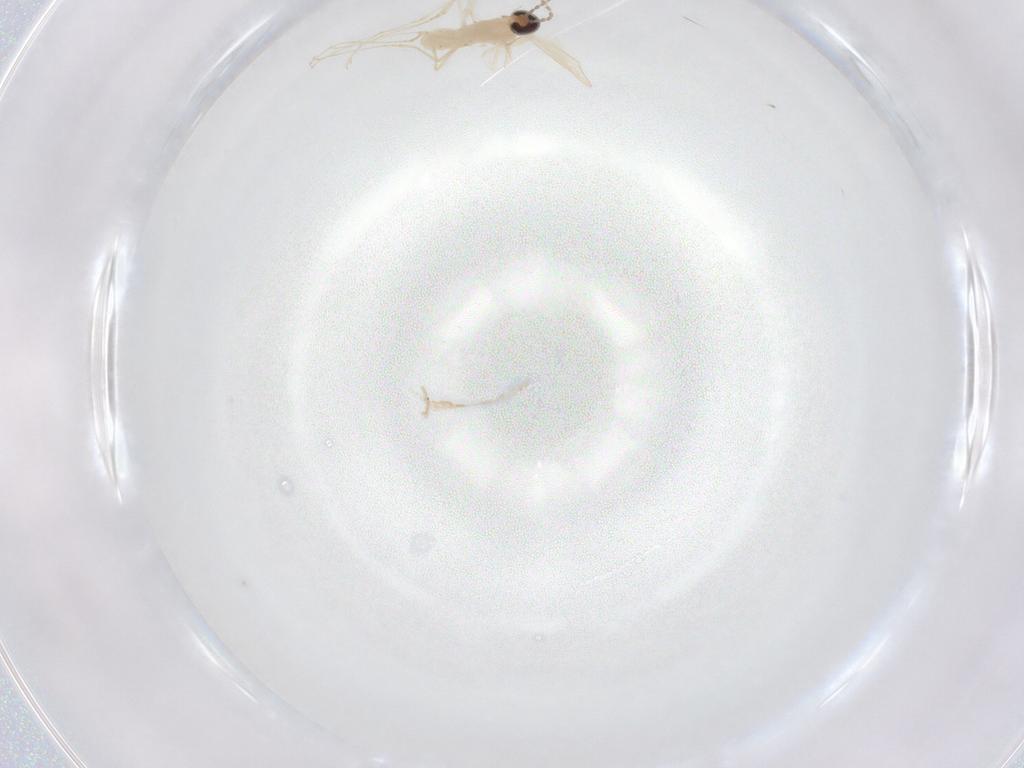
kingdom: Animalia
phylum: Arthropoda
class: Insecta
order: Diptera
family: Cecidomyiidae
